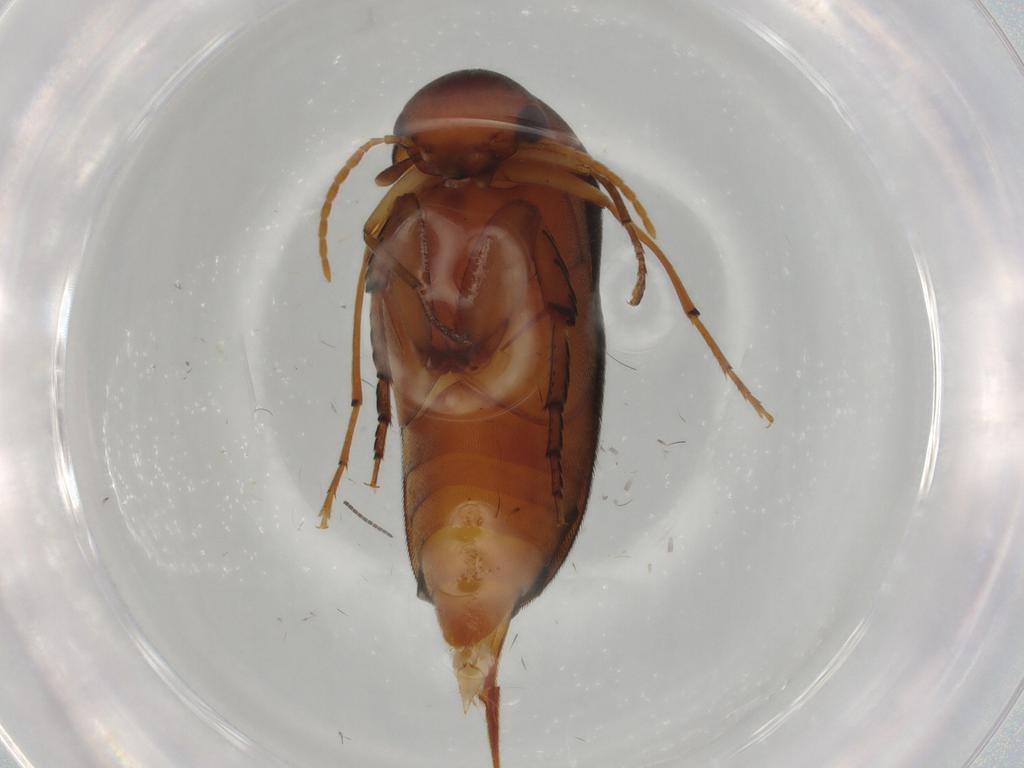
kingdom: Animalia
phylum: Arthropoda
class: Insecta
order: Coleoptera
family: Mordellidae
